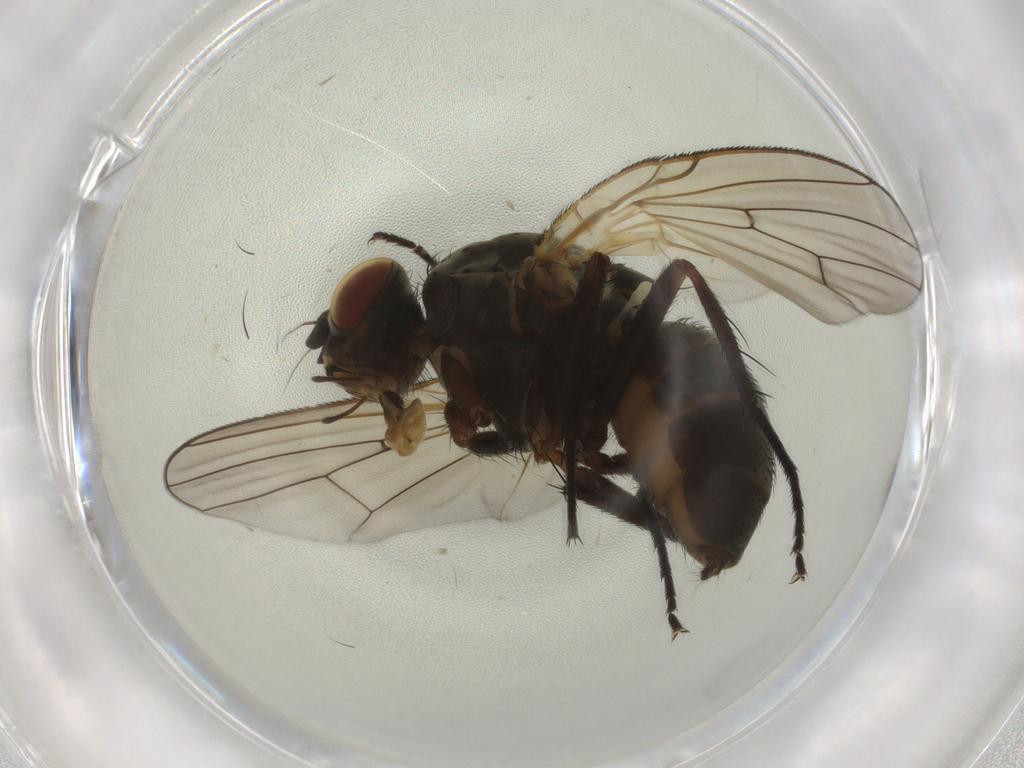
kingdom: Animalia
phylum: Arthropoda
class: Insecta
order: Diptera
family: Anthomyiidae
